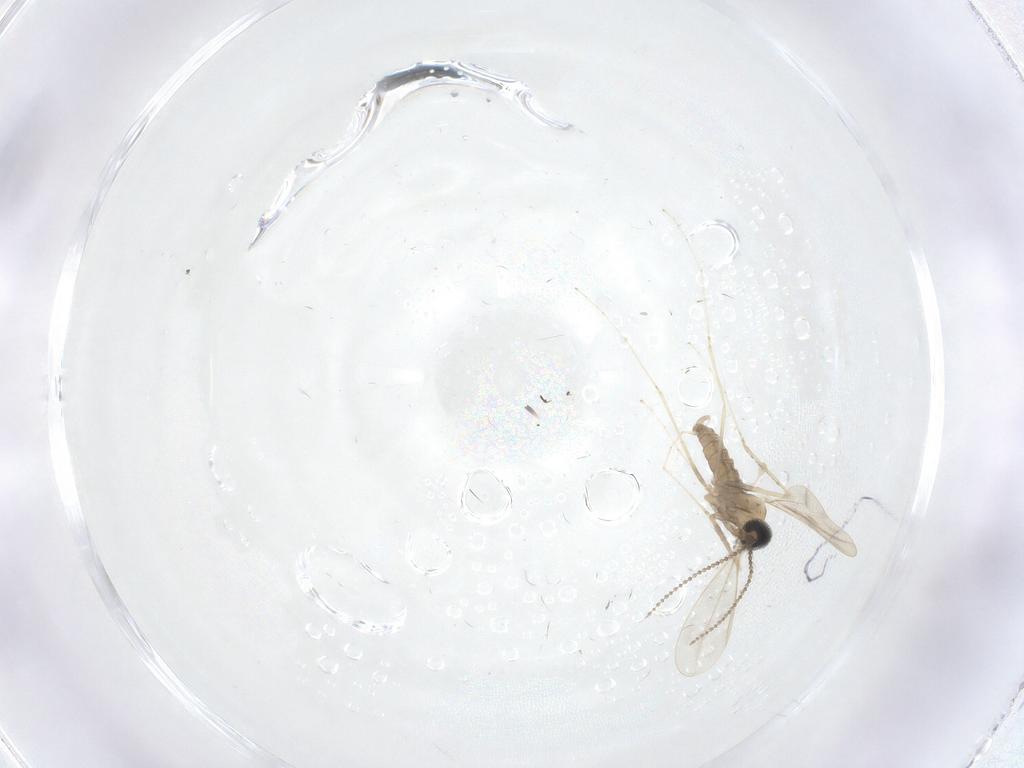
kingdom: Animalia
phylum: Arthropoda
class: Insecta
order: Diptera
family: Phoridae
